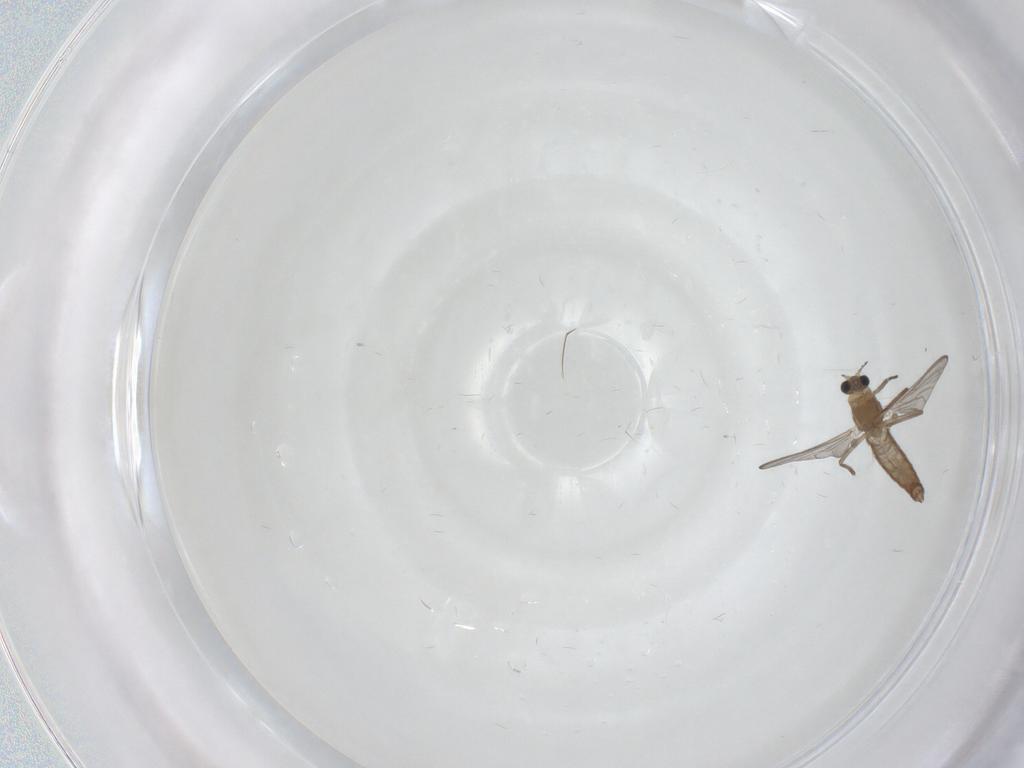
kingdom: Animalia
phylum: Arthropoda
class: Insecta
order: Diptera
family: Chironomidae
